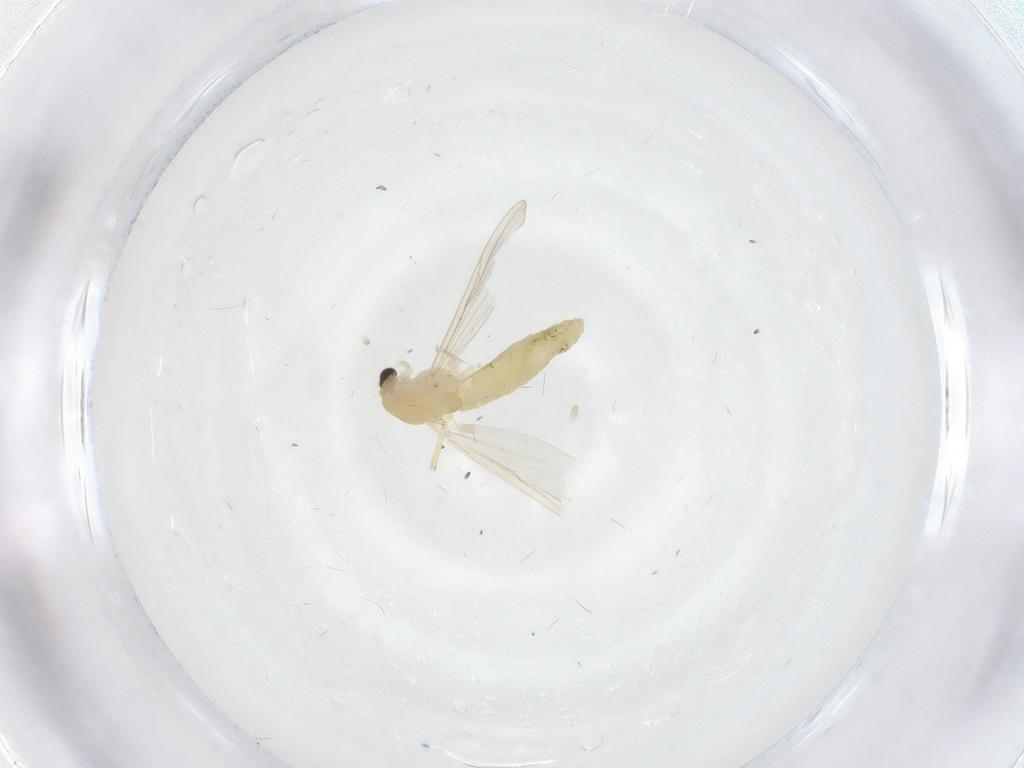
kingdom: Animalia
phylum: Arthropoda
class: Insecta
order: Diptera
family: Chironomidae
